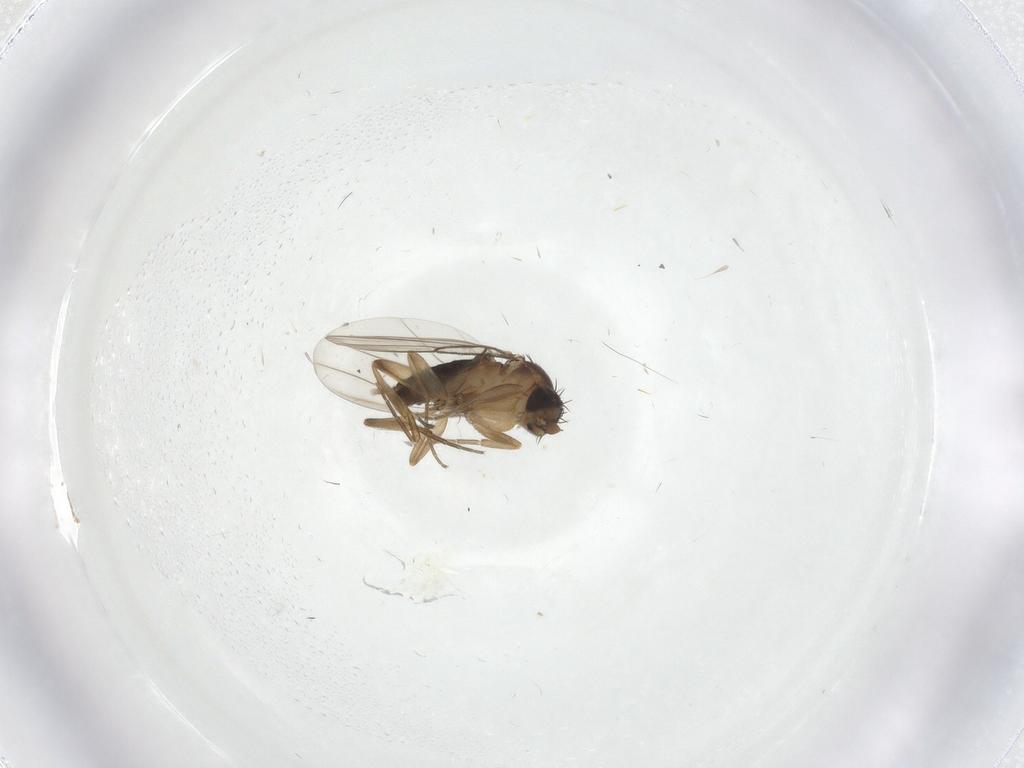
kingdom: Animalia
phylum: Arthropoda
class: Insecta
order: Diptera
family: Phoridae
